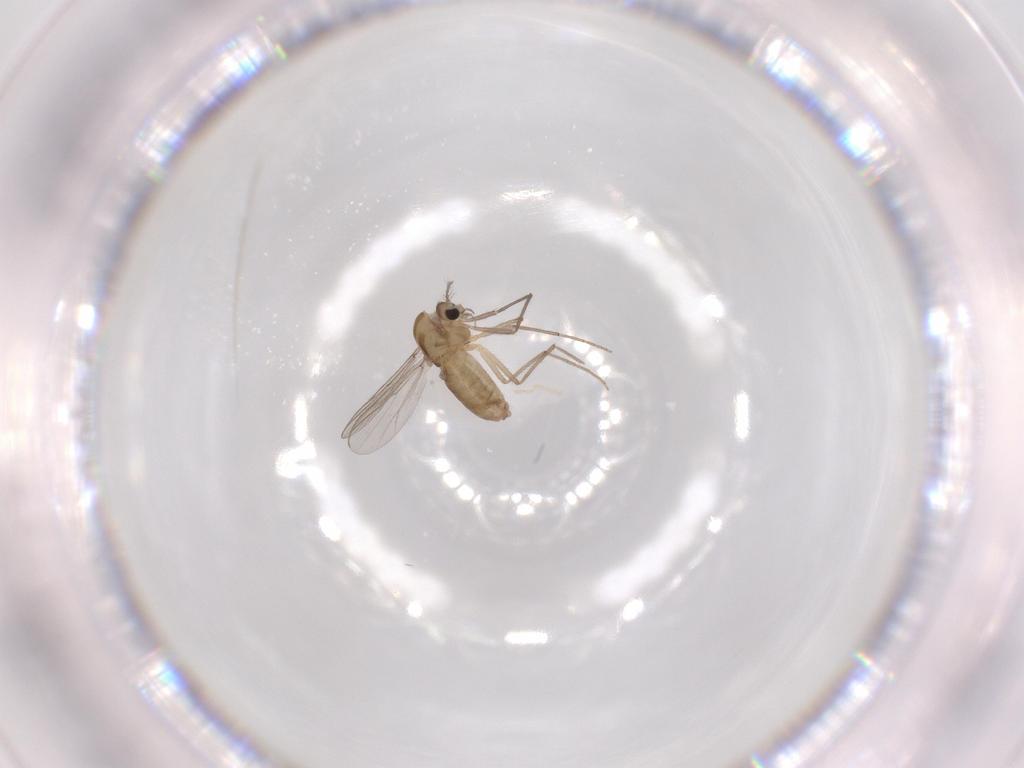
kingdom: Animalia
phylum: Arthropoda
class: Insecta
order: Diptera
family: Chironomidae
